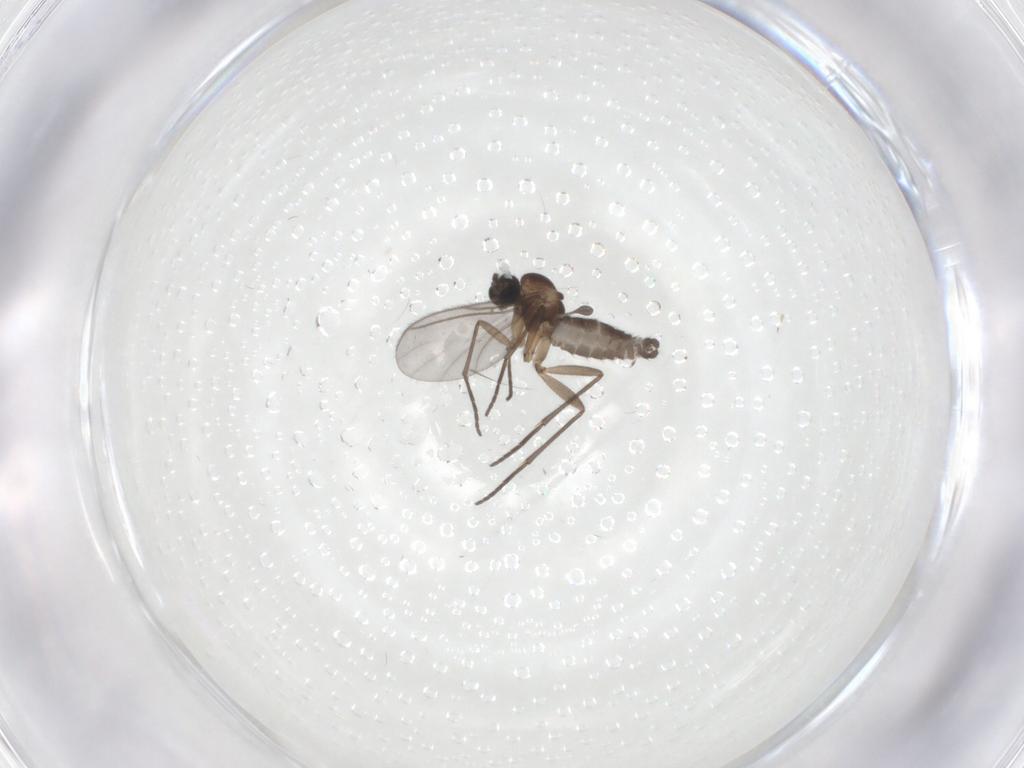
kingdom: Animalia
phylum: Arthropoda
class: Insecta
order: Diptera
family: Sciaridae
